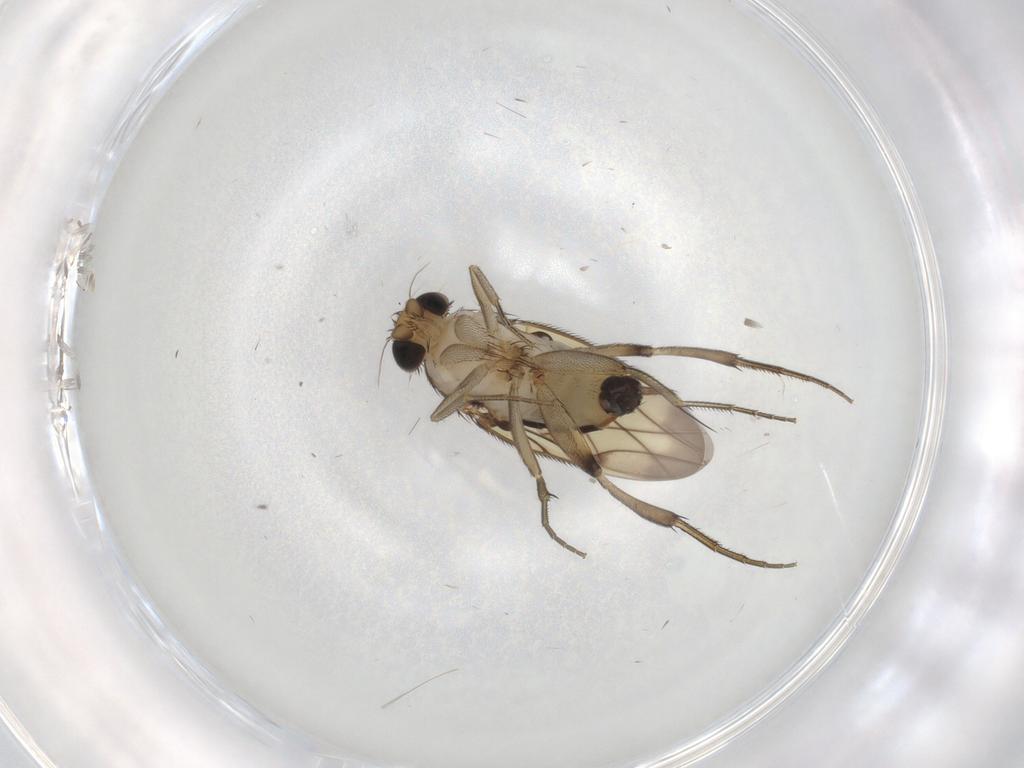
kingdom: Animalia
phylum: Arthropoda
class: Insecta
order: Diptera
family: Phoridae
